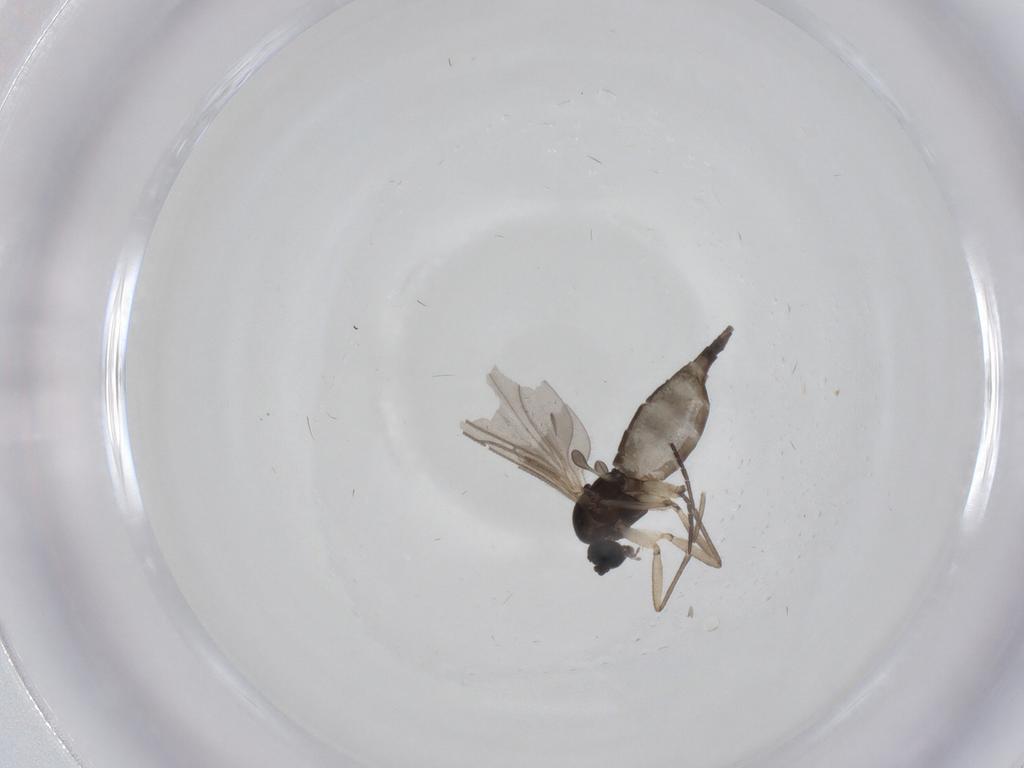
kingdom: Animalia
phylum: Arthropoda
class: Insecta
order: Diptera
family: Sciaridae
